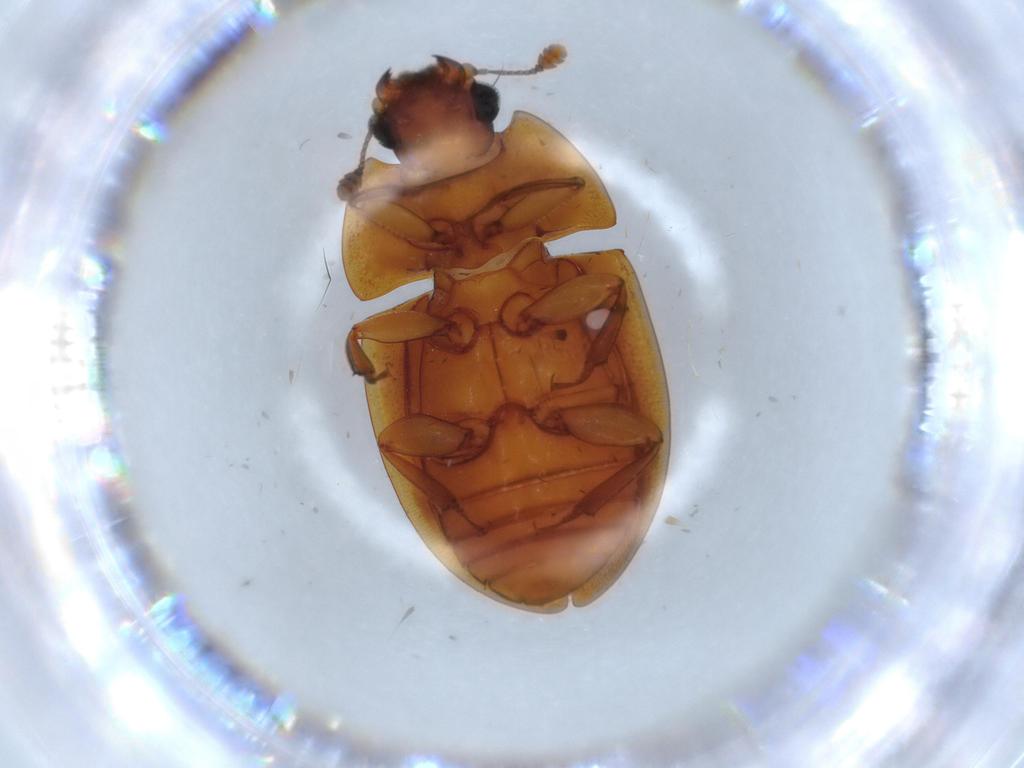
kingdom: Animalia
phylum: Arthropoda
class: Insecta
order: Coleoptera
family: Nitidulidae
